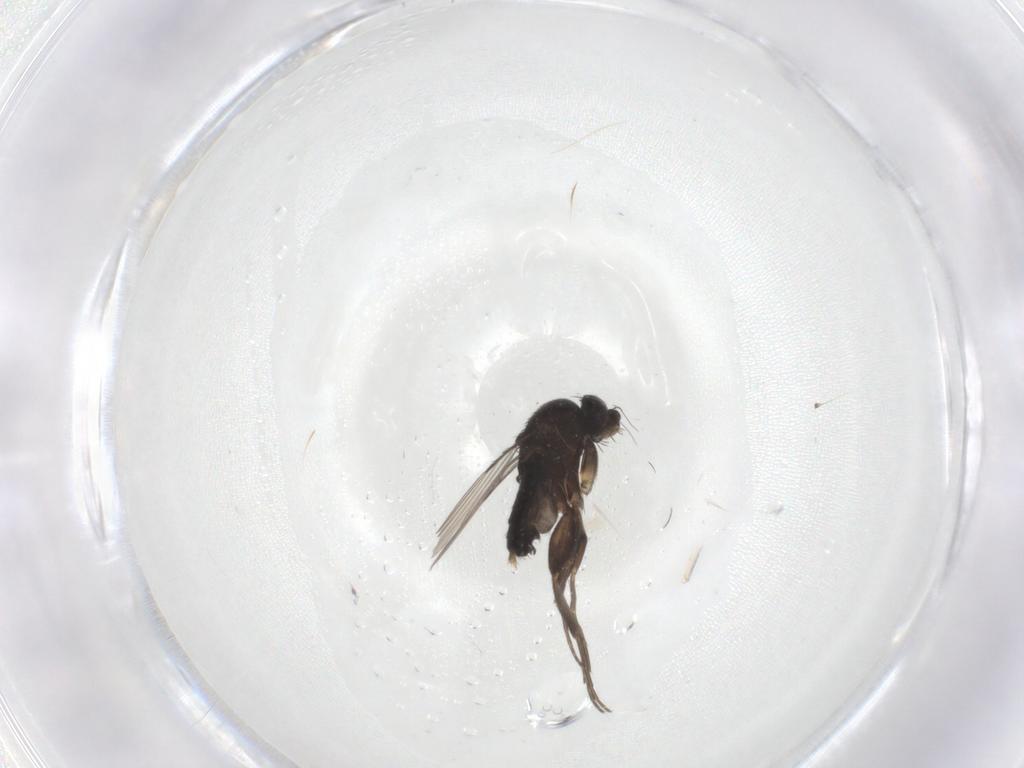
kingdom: Animalia
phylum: Arthropoda
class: Insecta
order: Diptera
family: Phoridae
